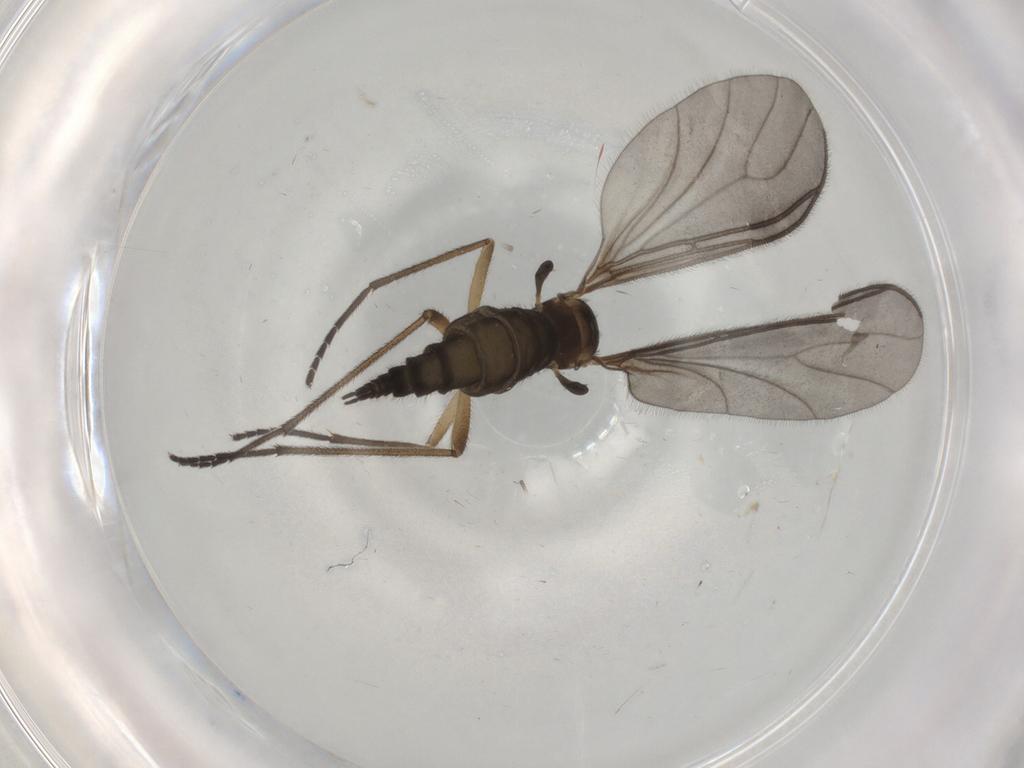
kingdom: Animalia
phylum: Arthropoda
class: Insecta
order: Diptera
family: Sciaridae
